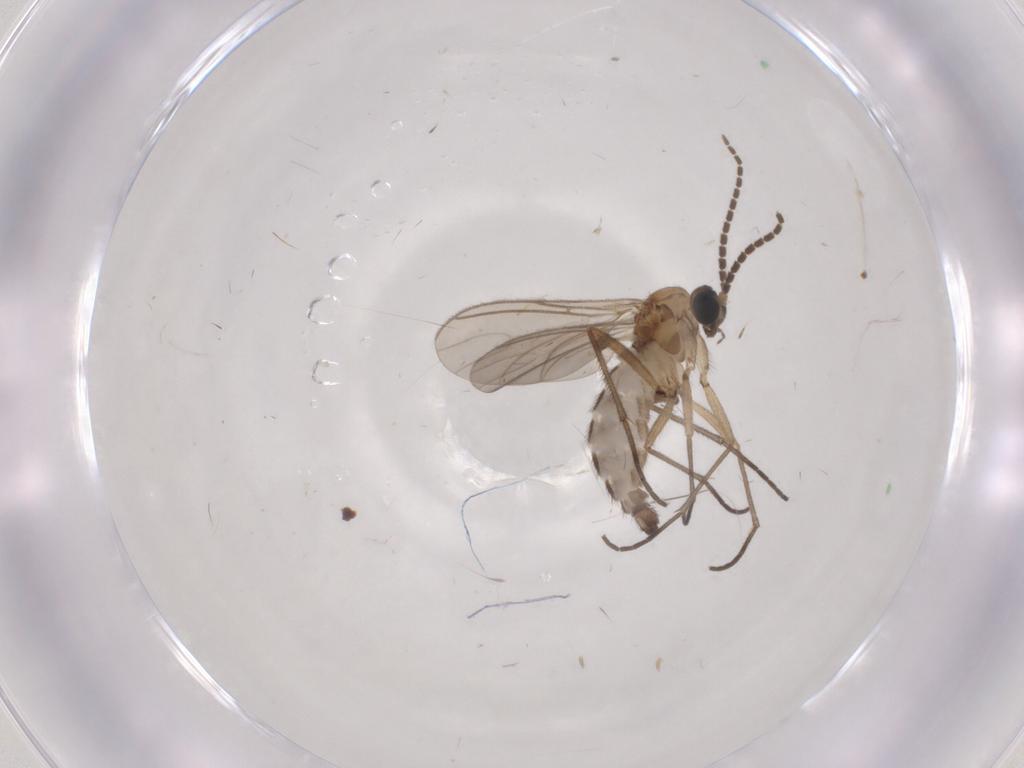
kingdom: Animalia
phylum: Arthropoda
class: Insecta
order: Diptera
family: Sciaridae
